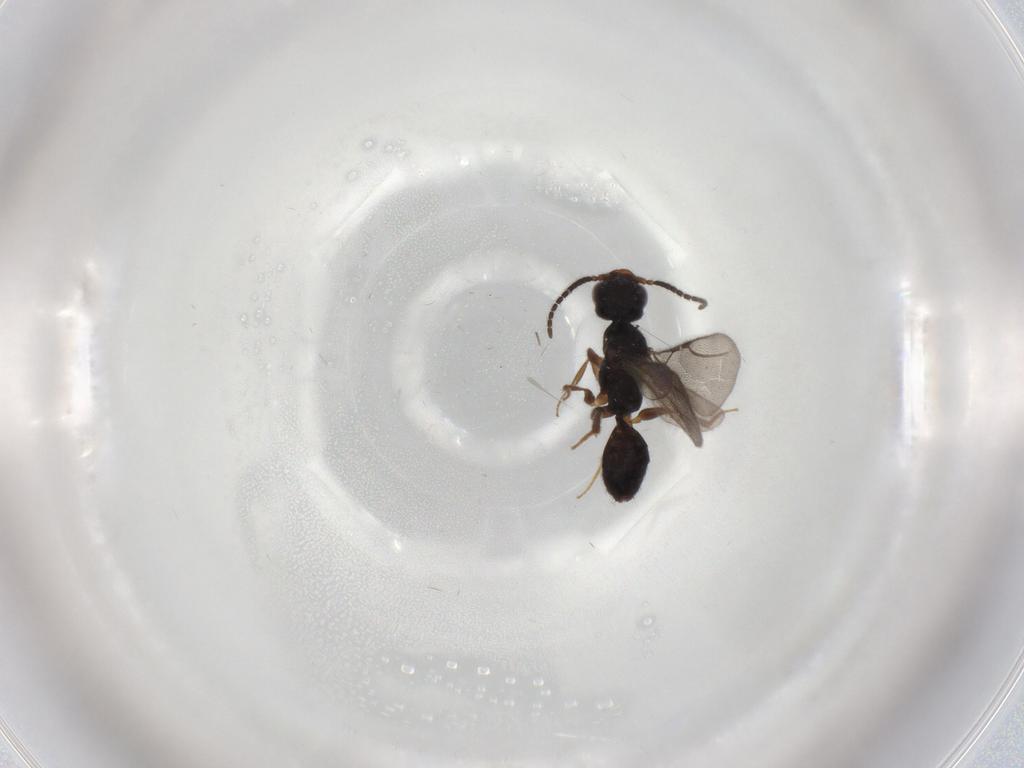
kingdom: Animalia
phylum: Arthropoda
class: Insecta
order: Hymenoptera
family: Bethylidae
